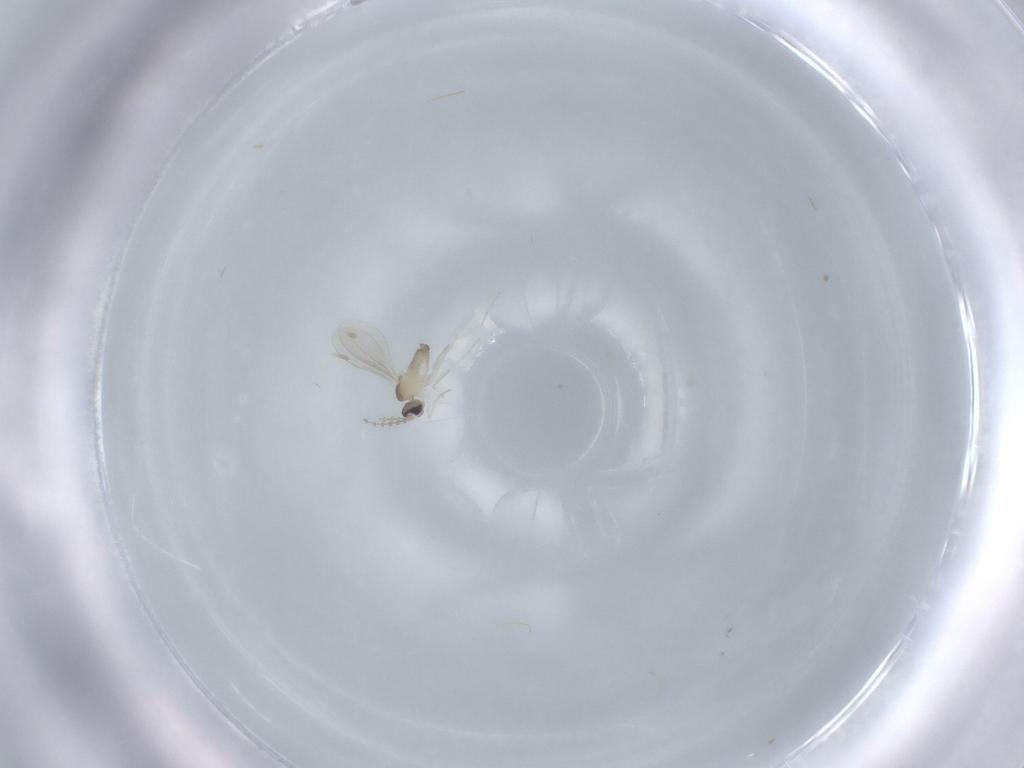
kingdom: Animalia
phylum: Arthropoda
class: Insecta
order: Diptera
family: Cecidomyiidae
